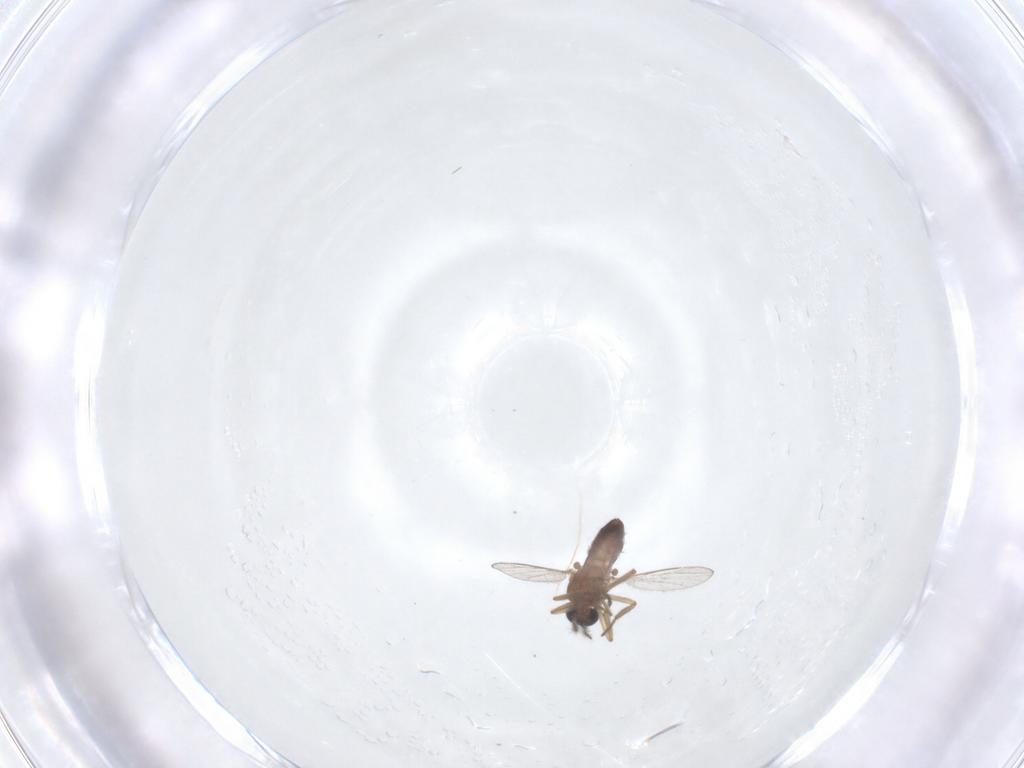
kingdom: Animalia
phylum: Arthropoda
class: Insecta
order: Diptera
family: Ceratopogonidae
